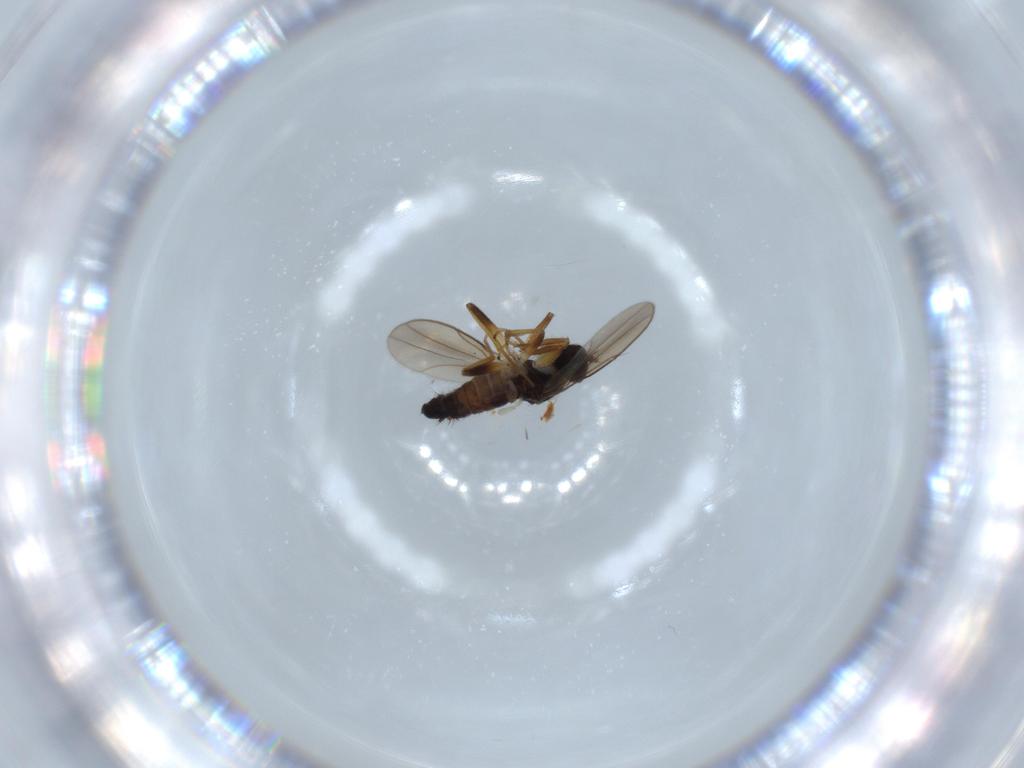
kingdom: Animalia
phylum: Arthropoda
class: Insecta
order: Diptera
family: Hybotidae
